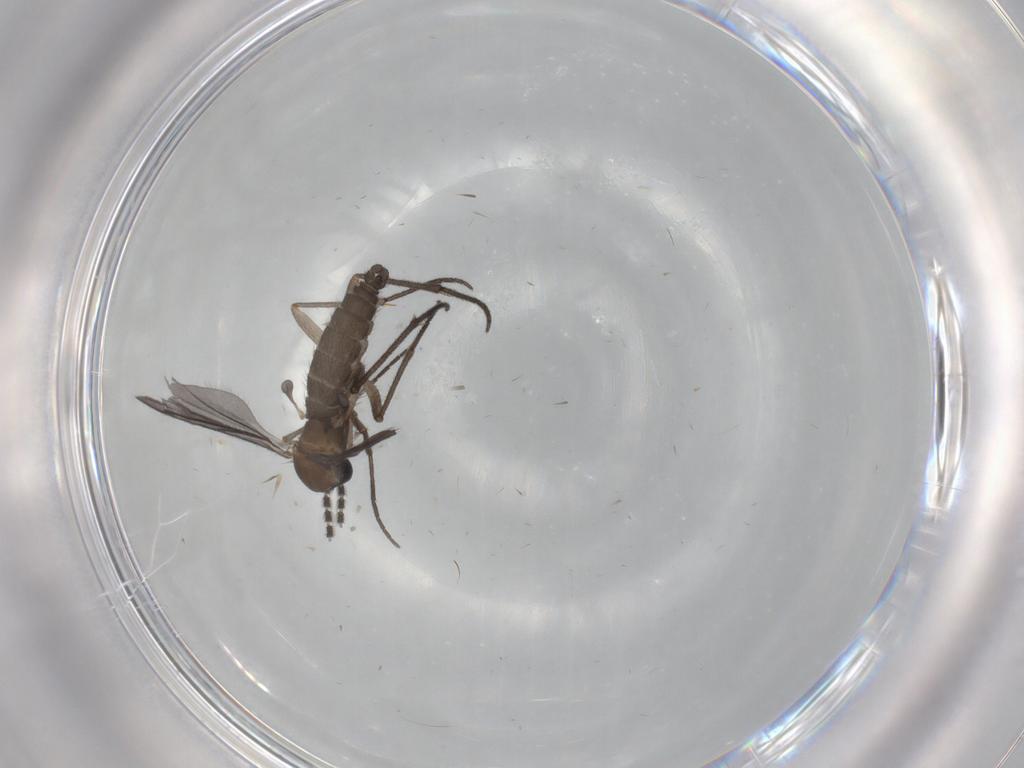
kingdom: Animalia
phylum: Arthropoda
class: Insecta
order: Diptera
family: Sciaridae
